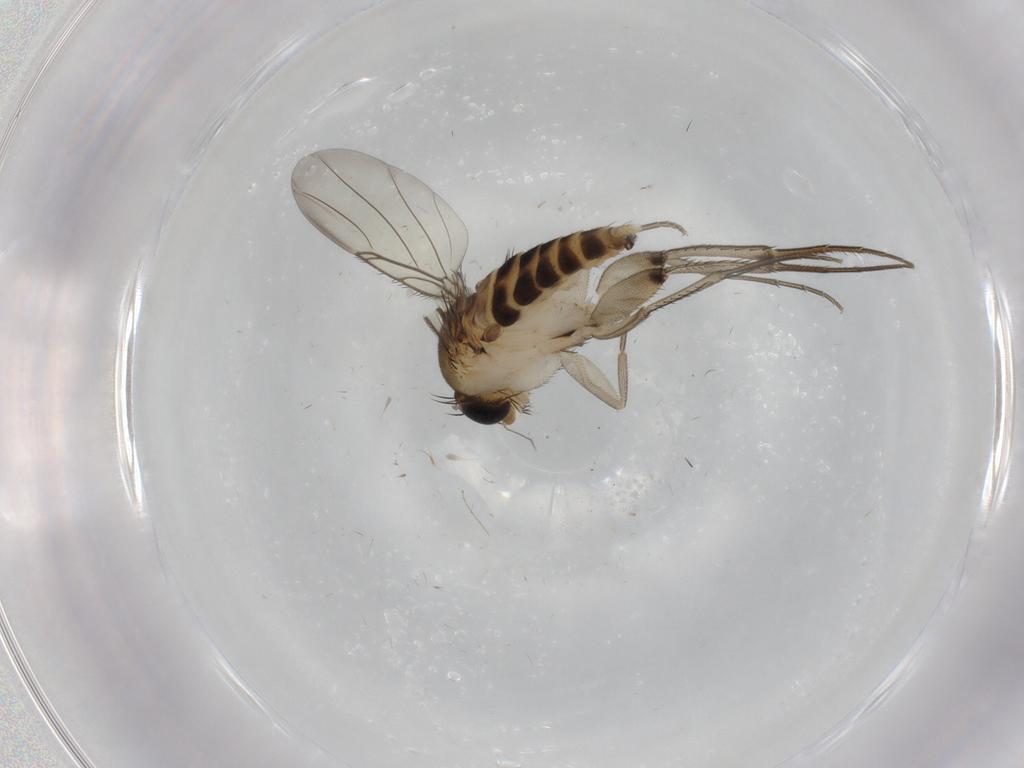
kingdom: Animalia
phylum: Arthropoda
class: Insecta
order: Diptera
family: Phoridae
